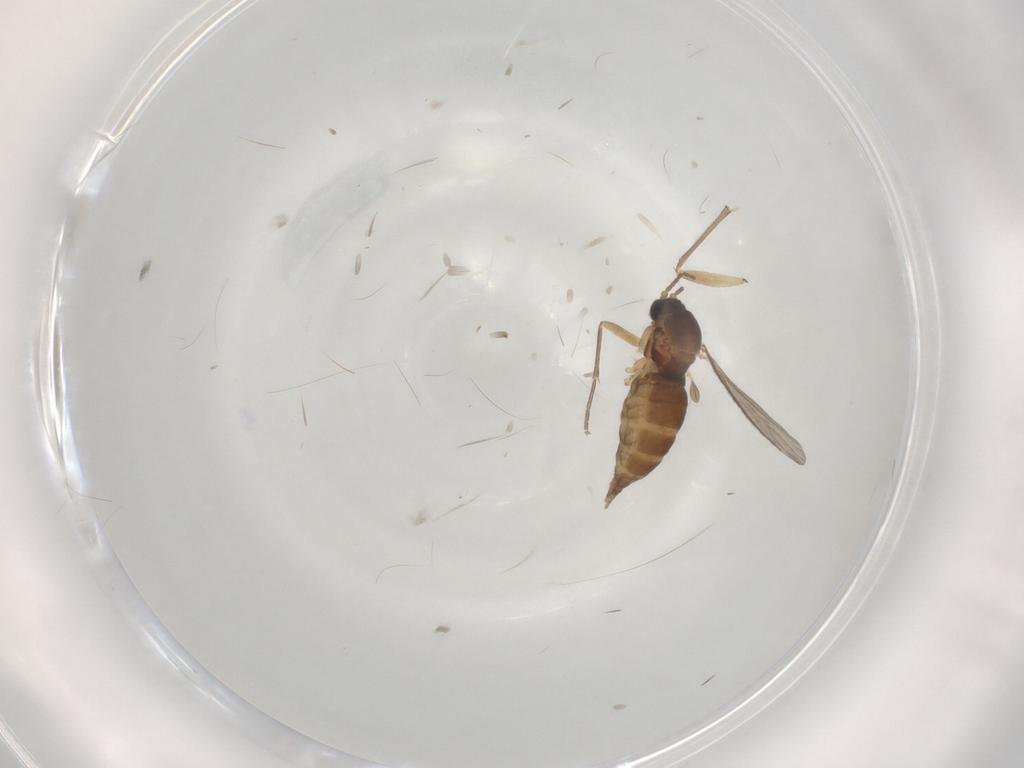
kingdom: Animalia
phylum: Arthropoda
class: Insecta
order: Diptera
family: Sciaridae
